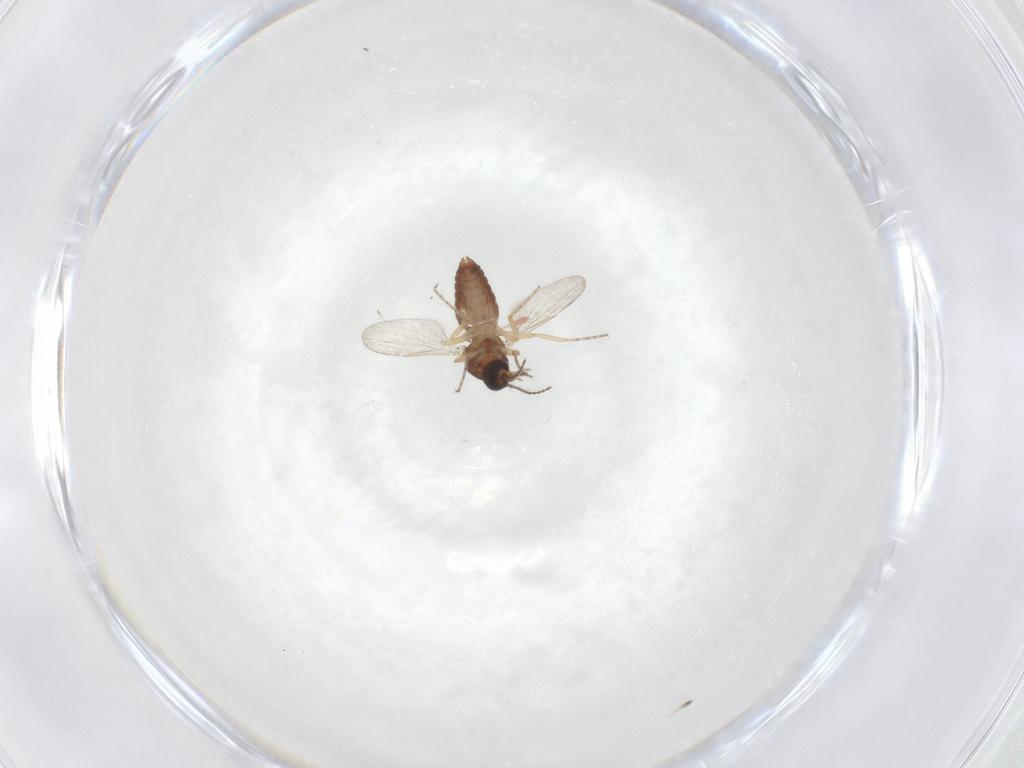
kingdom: Animalia
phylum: Arthropoda
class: Insecta
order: Diptera
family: Ceratopogonidae
